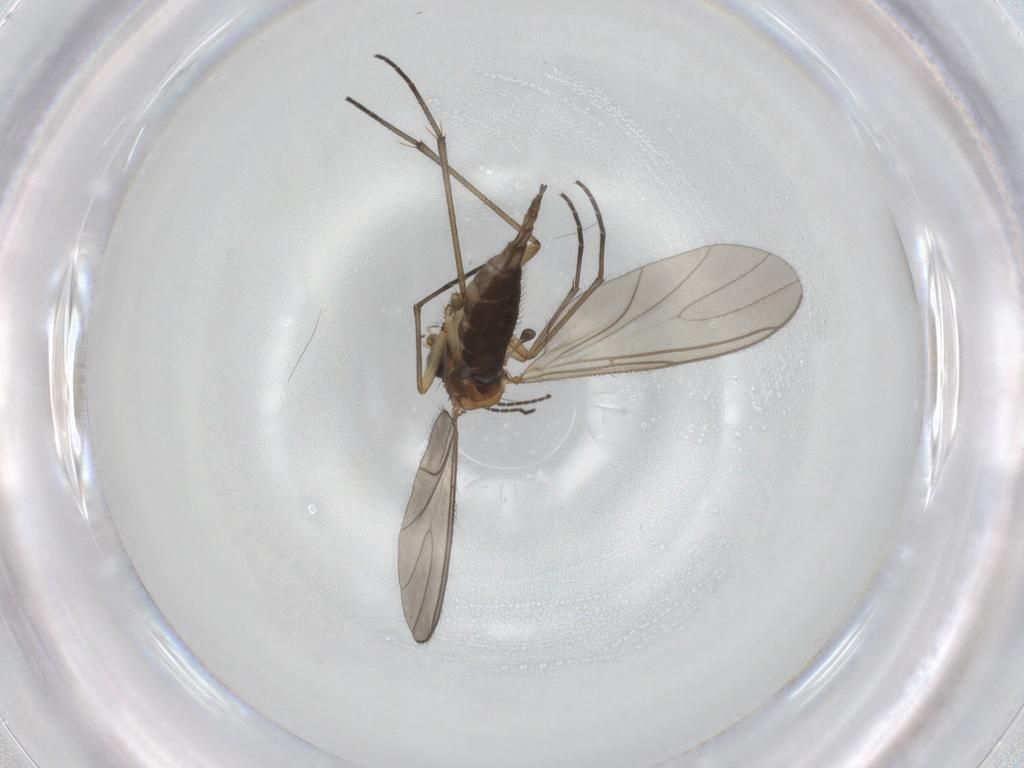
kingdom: Animalia
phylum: Arthropoda
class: Insecta
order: Diptera
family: Sciaridae
